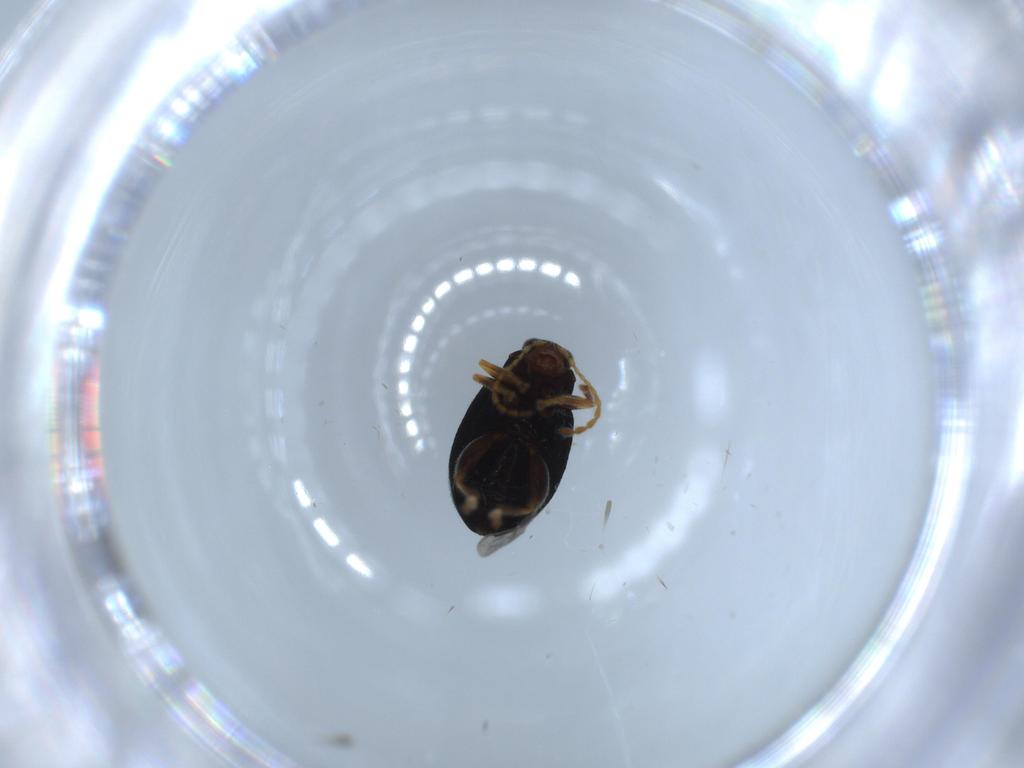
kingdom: Animalia
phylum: Arthropoda
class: Insecta
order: Coleoptera
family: Chrysomelidae
